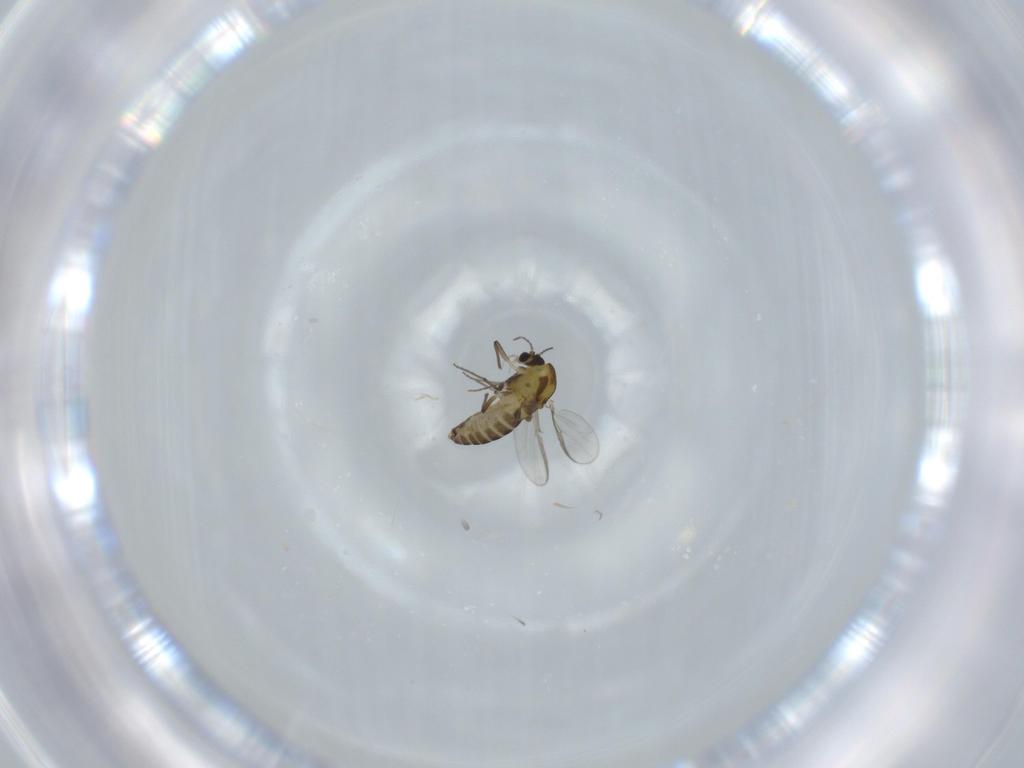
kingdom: Animalia
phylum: Arthropoda
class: Insecta
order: Diptera
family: Chironomidae
